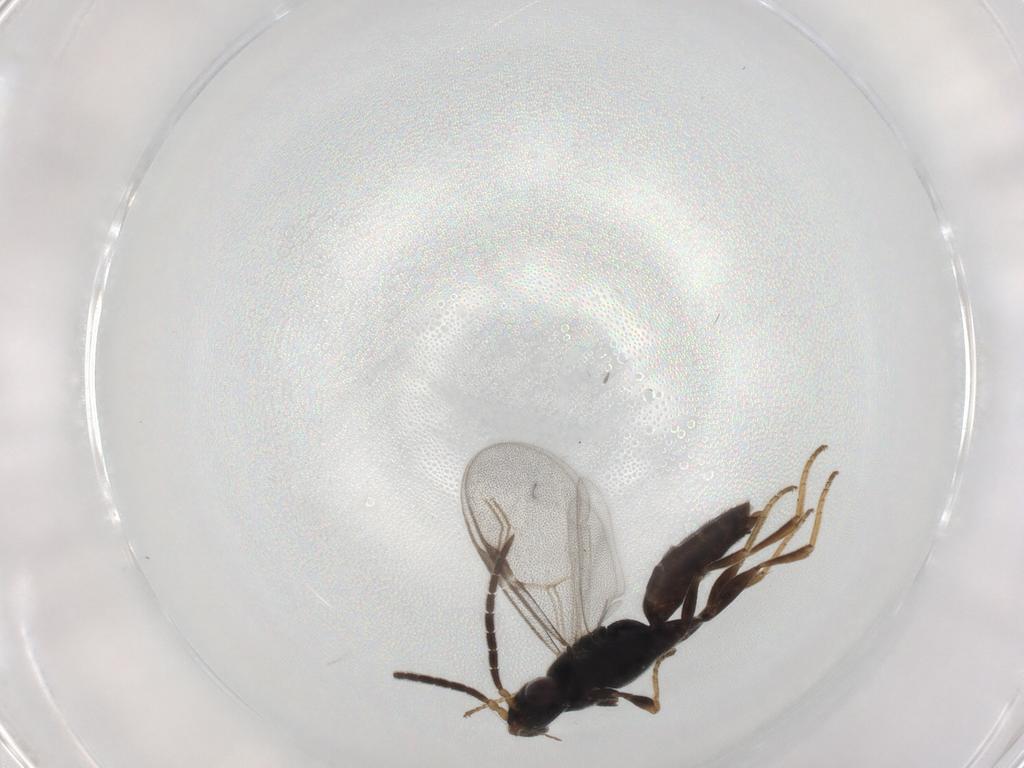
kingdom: Animalia
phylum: Arthropoda
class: Insecta
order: Hymenoptera
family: Dryinidae
